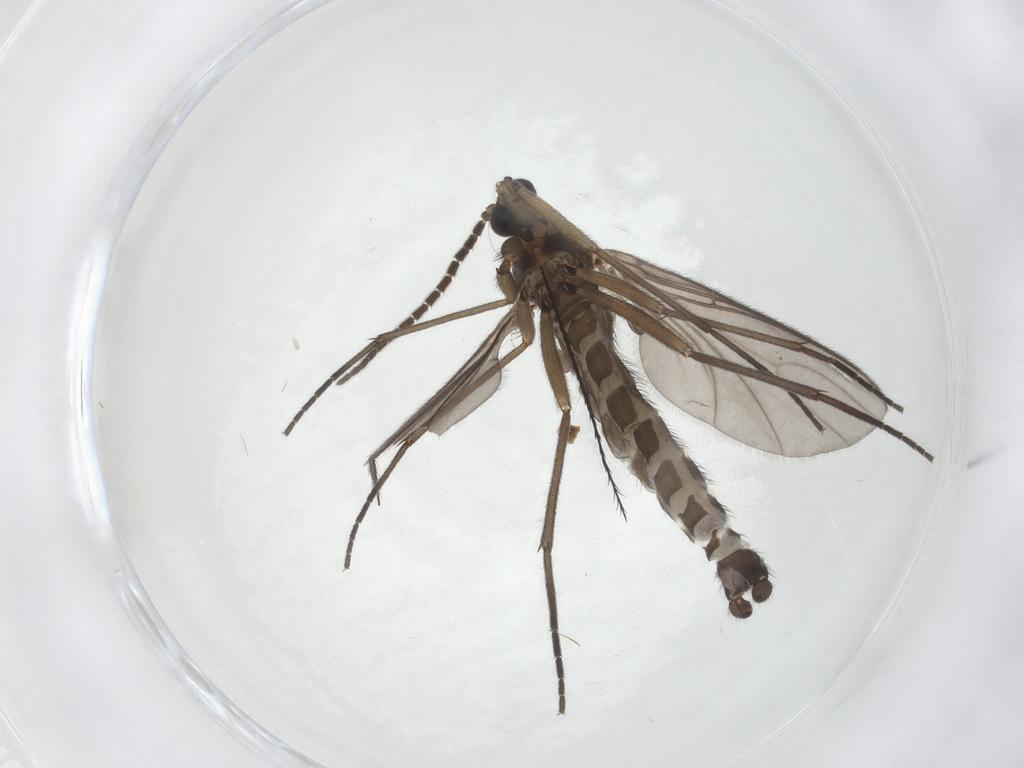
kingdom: Animalia
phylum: Arthropoda
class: Insecta
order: Diptera
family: Sciaridae
